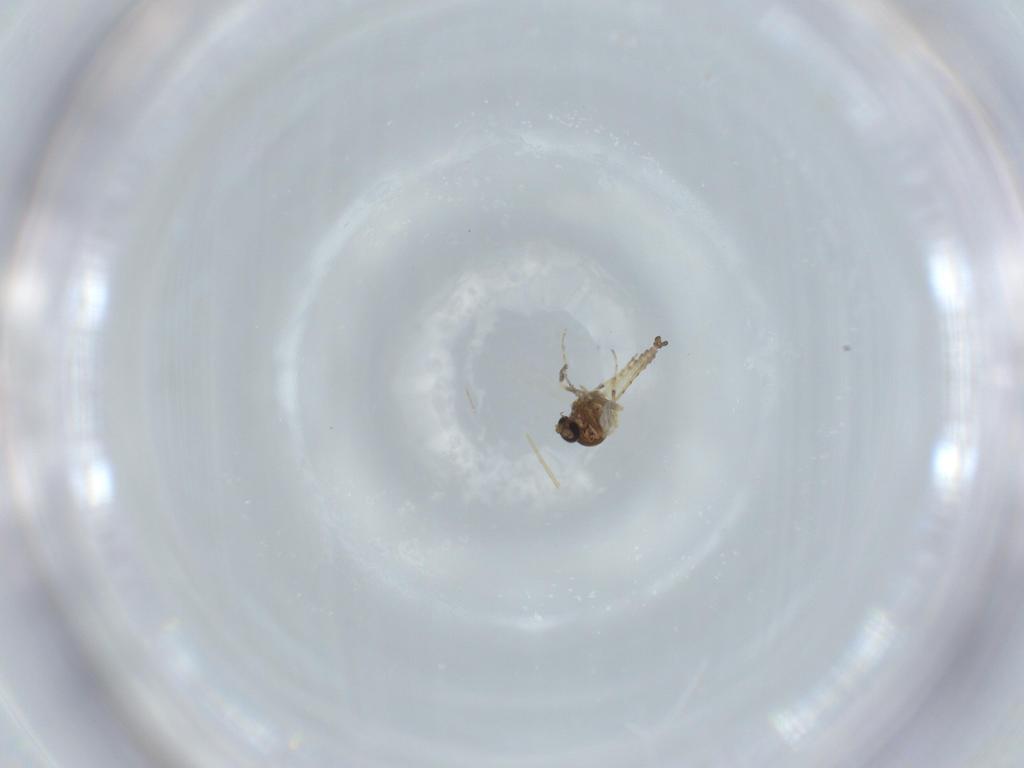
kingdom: Animalia
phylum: Arthropoda
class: Insecta
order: Diptera
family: Ceratopogonidae
